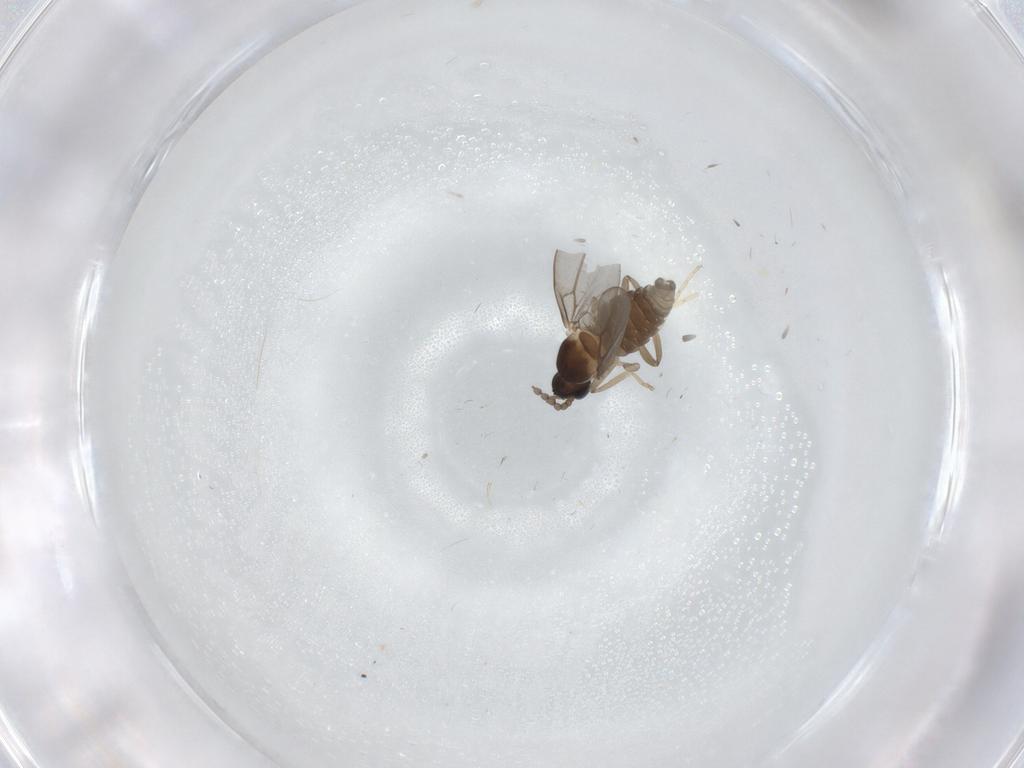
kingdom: Animalia
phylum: Arthropoda
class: Insecta
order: Diptera
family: Cecidomyiidae
